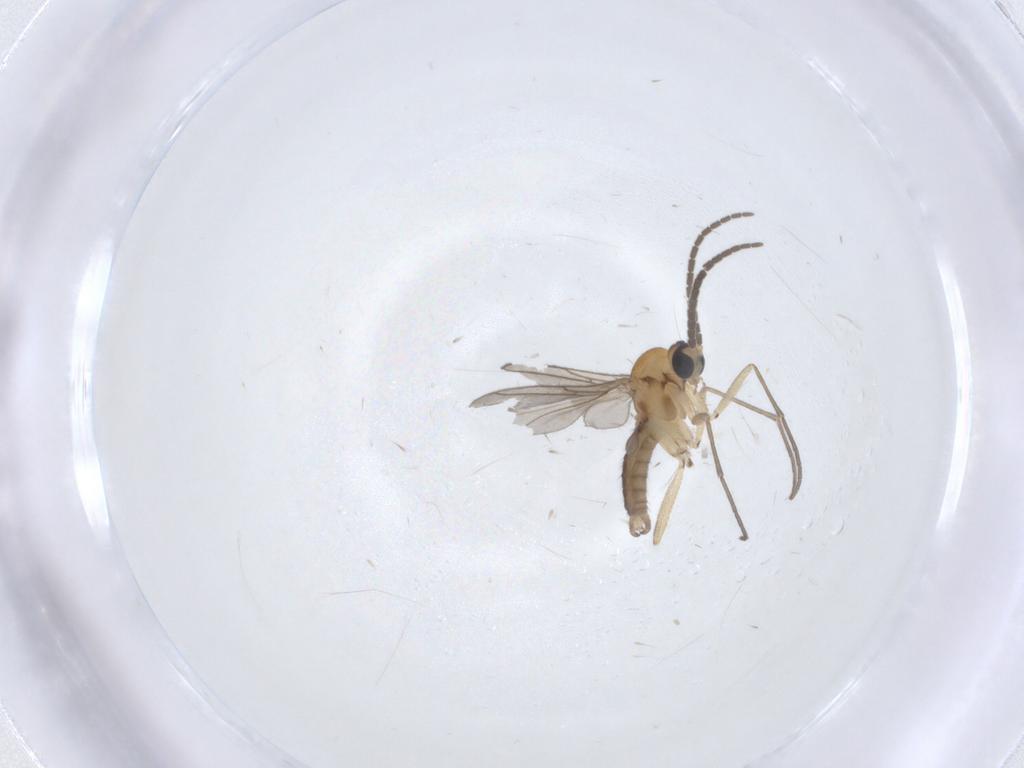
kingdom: Animalia
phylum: Arthropoda
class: Insecta
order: Diptera
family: Sciaridae
